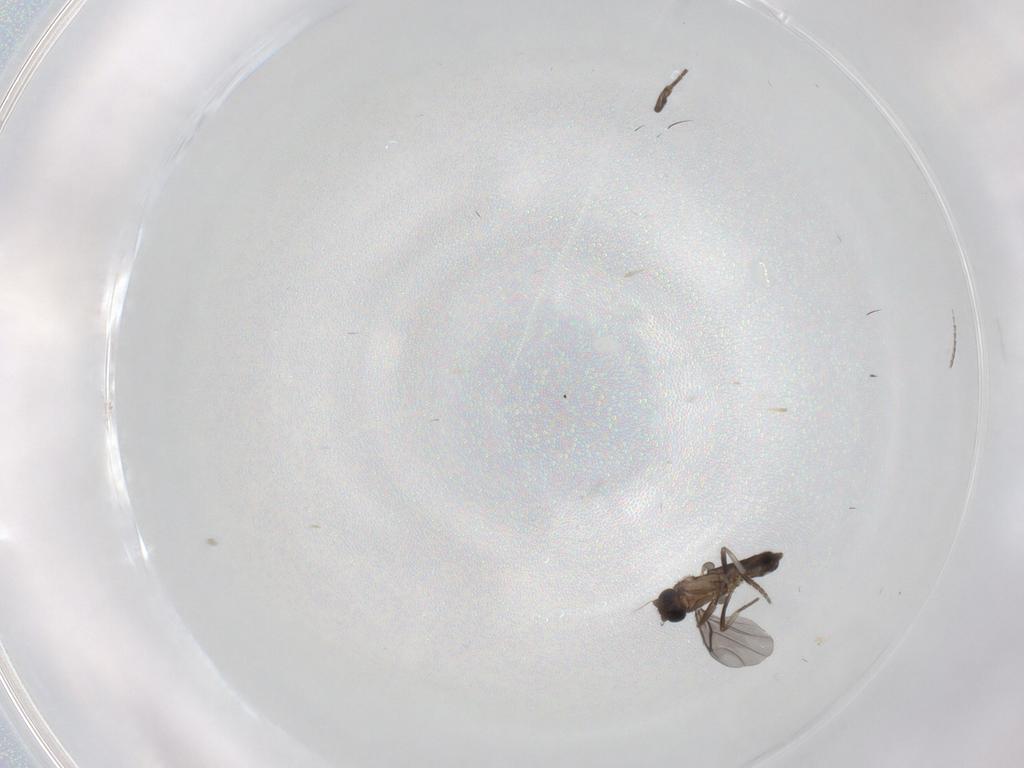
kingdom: Animalia
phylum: Arthropoda
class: Insecta
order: Diptera
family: Phoridae
